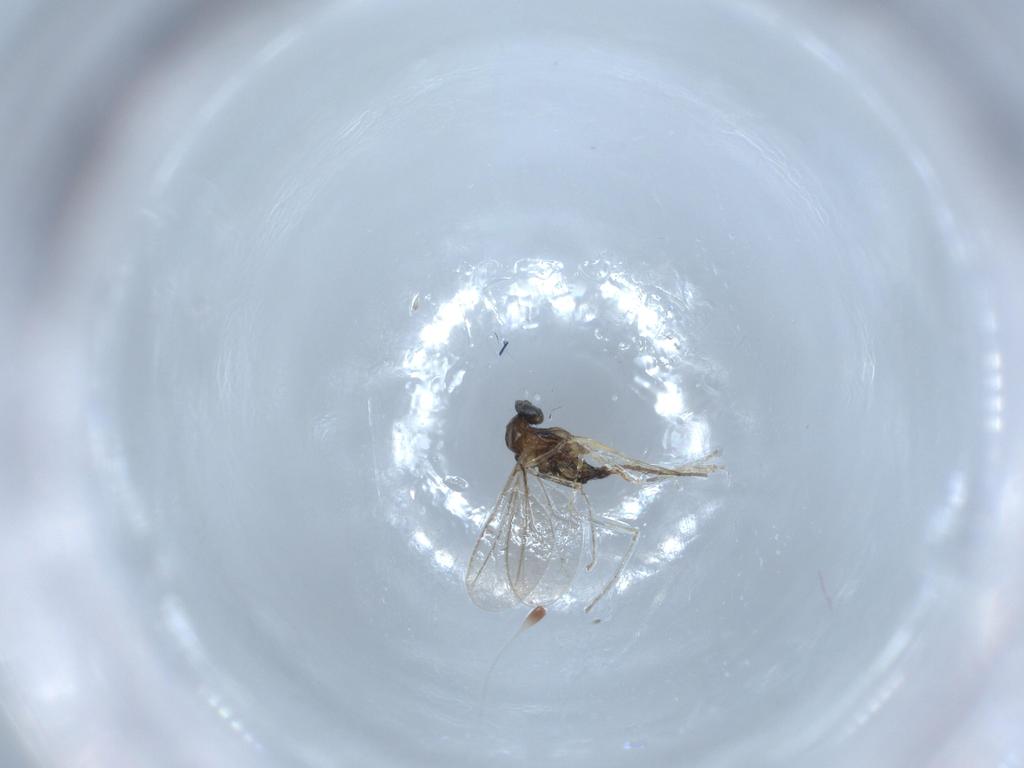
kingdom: Animalia
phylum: Arthropoda
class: Insecta
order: Diptera
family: Cecidomyiidae
